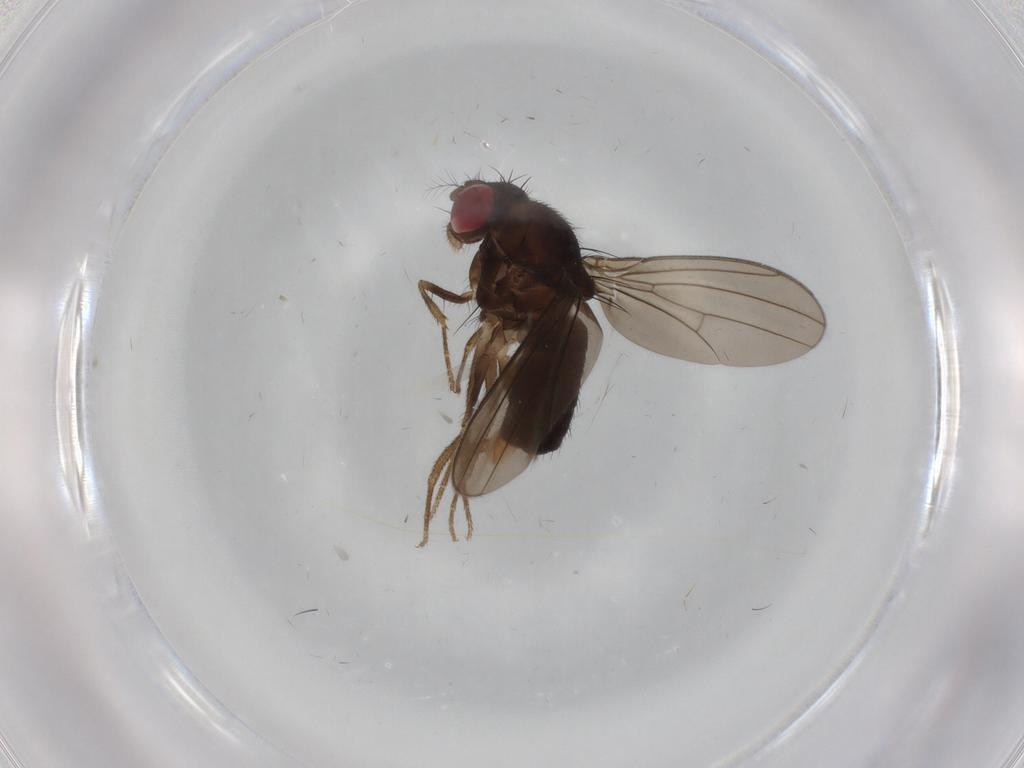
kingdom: Animalia
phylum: Arthropoda
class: Insecta
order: Diptera
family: Drosophilidae
